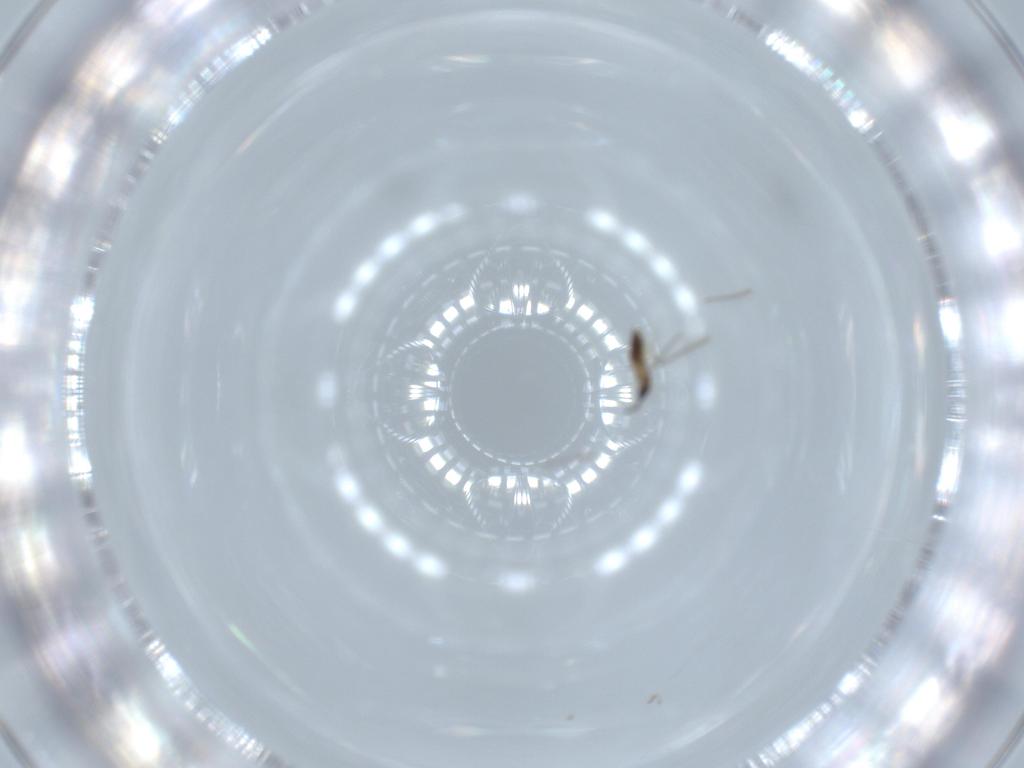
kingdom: Animalia
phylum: Arthropoda
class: Insecta
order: Hymenoptera
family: Mymaridae
